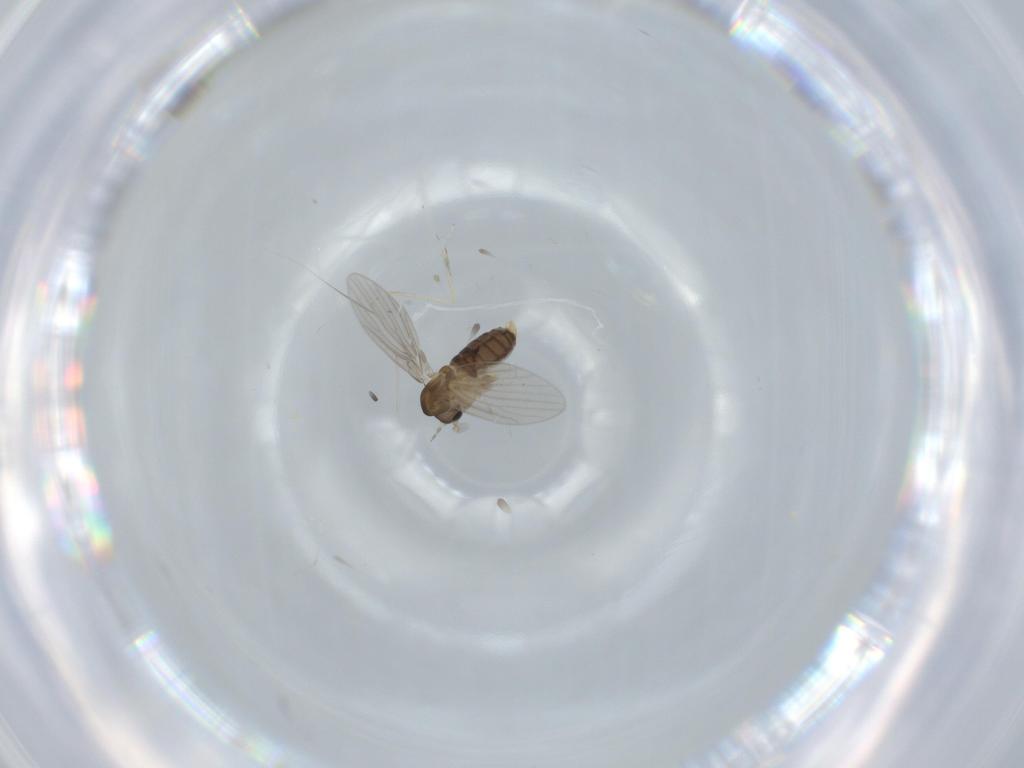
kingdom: Animalia
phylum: Arthropoda
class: Insecta
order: Diptera
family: Cecidomyiidae
